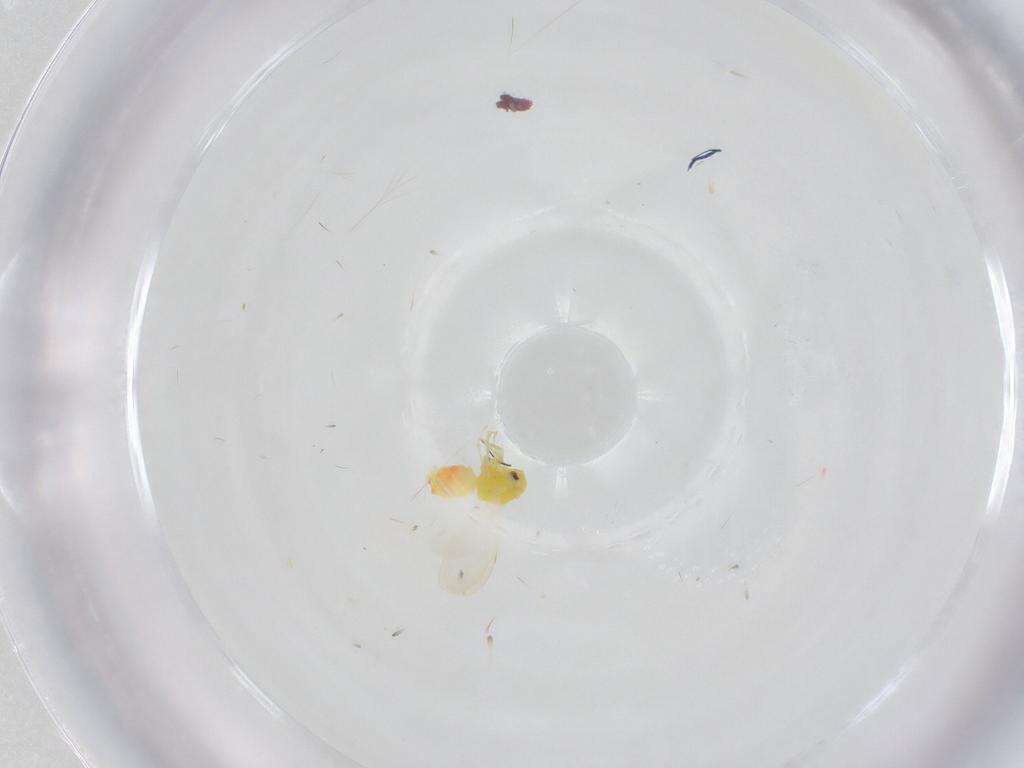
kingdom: Animalia
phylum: Arthropoda
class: Insecta
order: Hemiptera
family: Aleyrodidae
